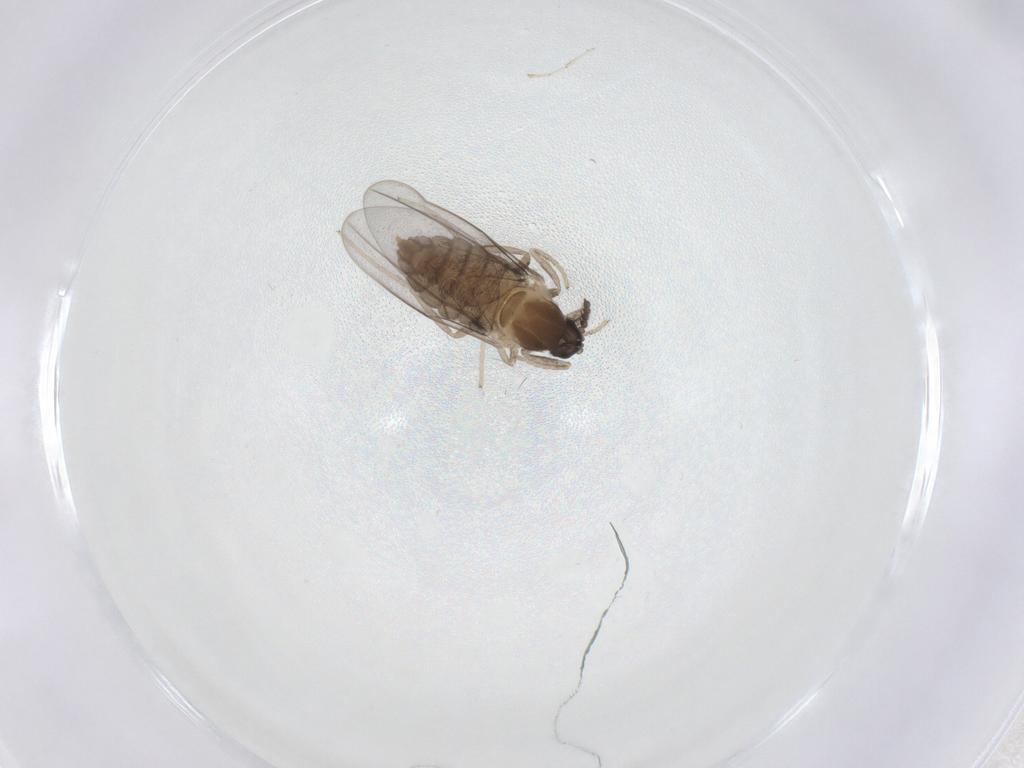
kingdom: Animalia
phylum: Arthropoda
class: Insecta
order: Diptera
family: Cecidomyiidae
